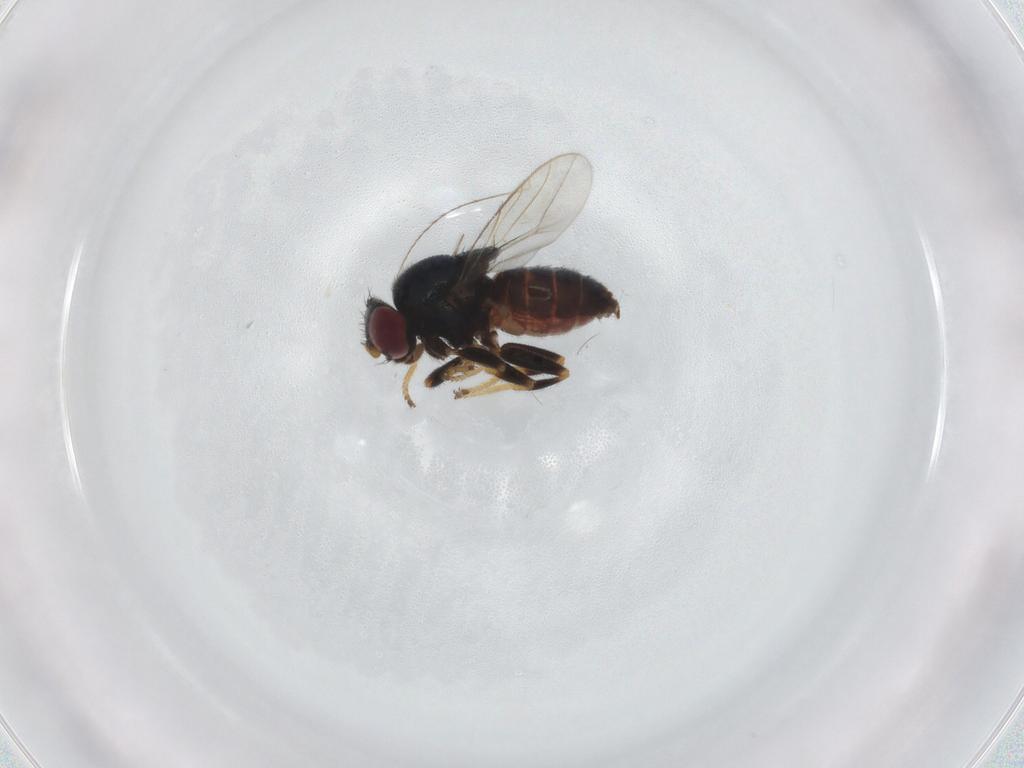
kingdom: Animalia
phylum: Arthropoda
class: Insecta
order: Diptera
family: Chloropidae
